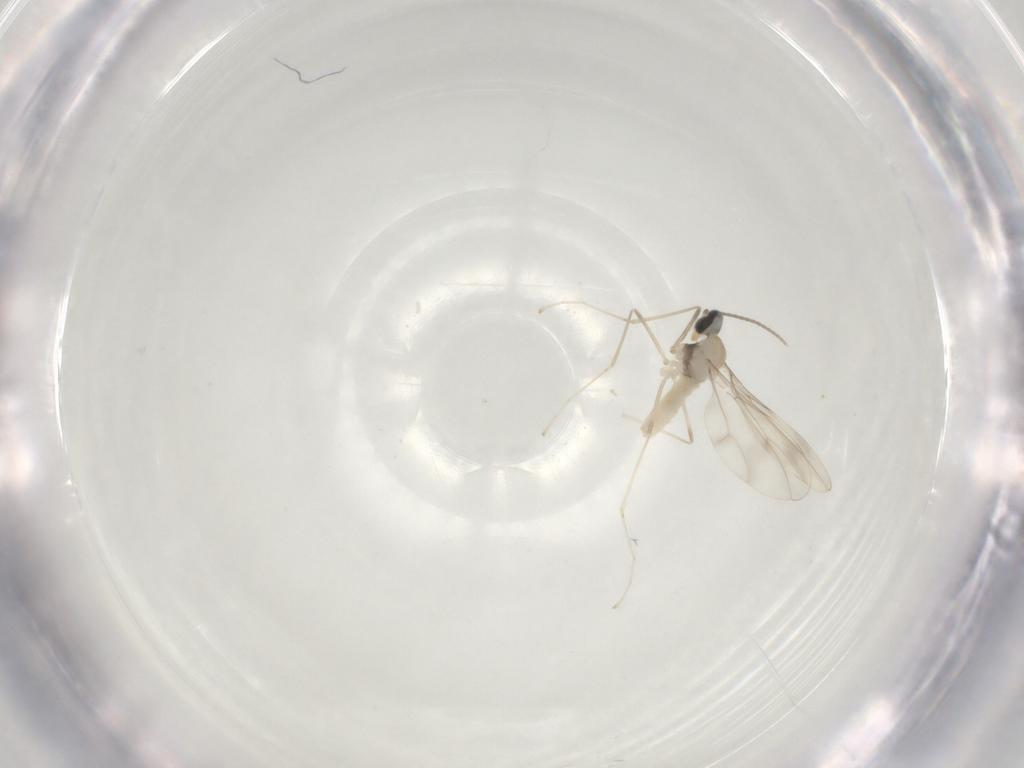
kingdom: Animalia
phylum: Arthropoda
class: Insecta
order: Diptera
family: Cecidomyiidae
